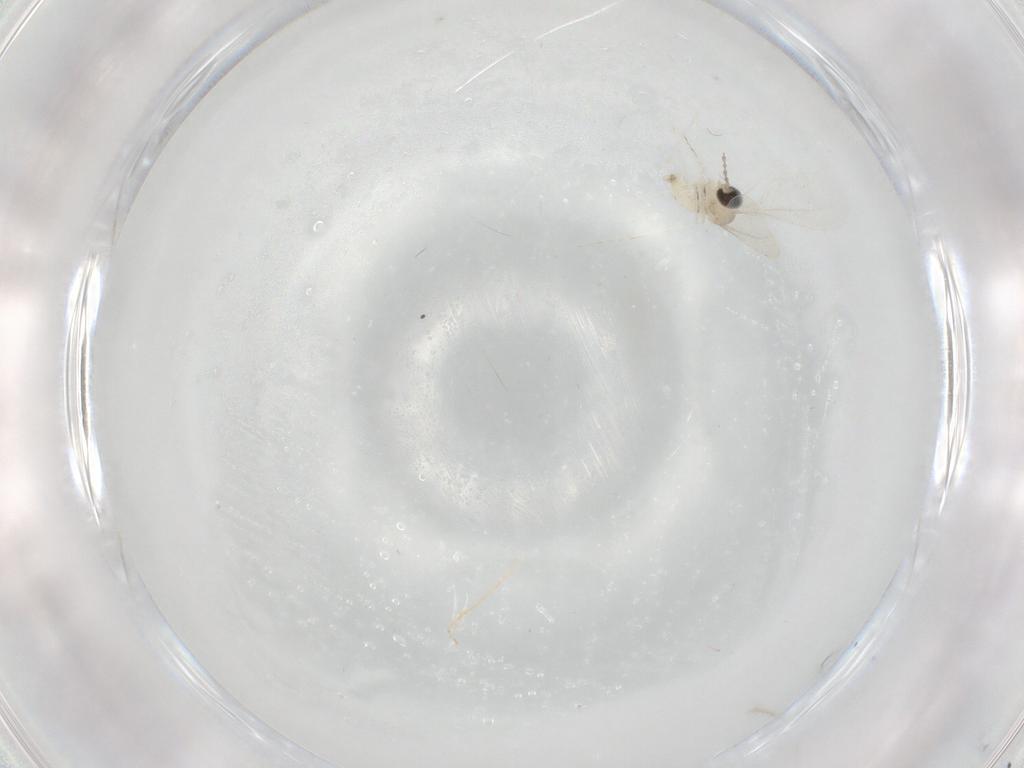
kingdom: Animalia
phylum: Arthropoda
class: Insecta
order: Diptera
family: Cecidomyiidae
